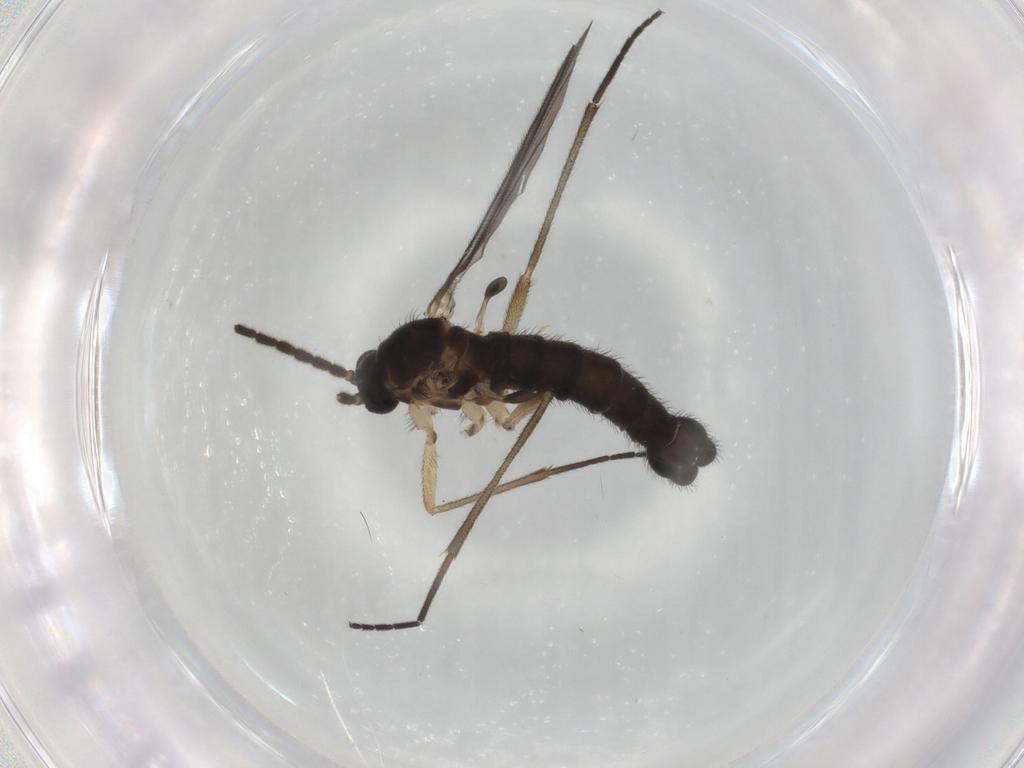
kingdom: Animalia
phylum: Arthropoda
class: Insecta
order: Diptera
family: Sciaridae
